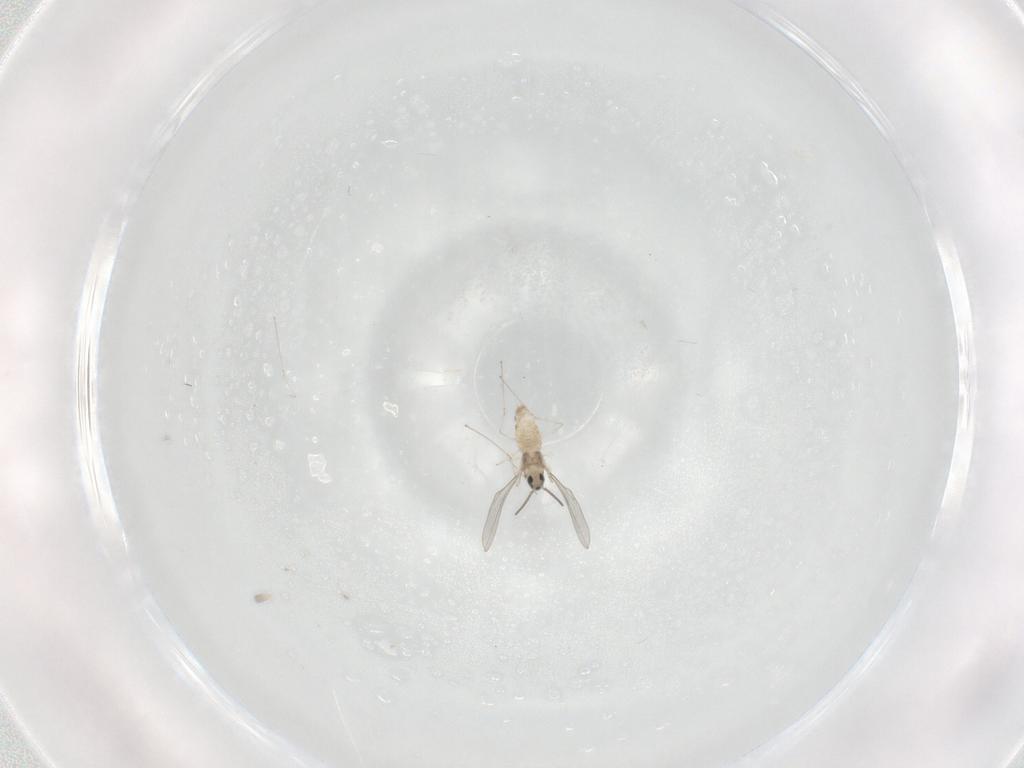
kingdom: Animalia
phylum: Arthropoda
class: Insecta
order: Diptera
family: Cecidomyiidae
